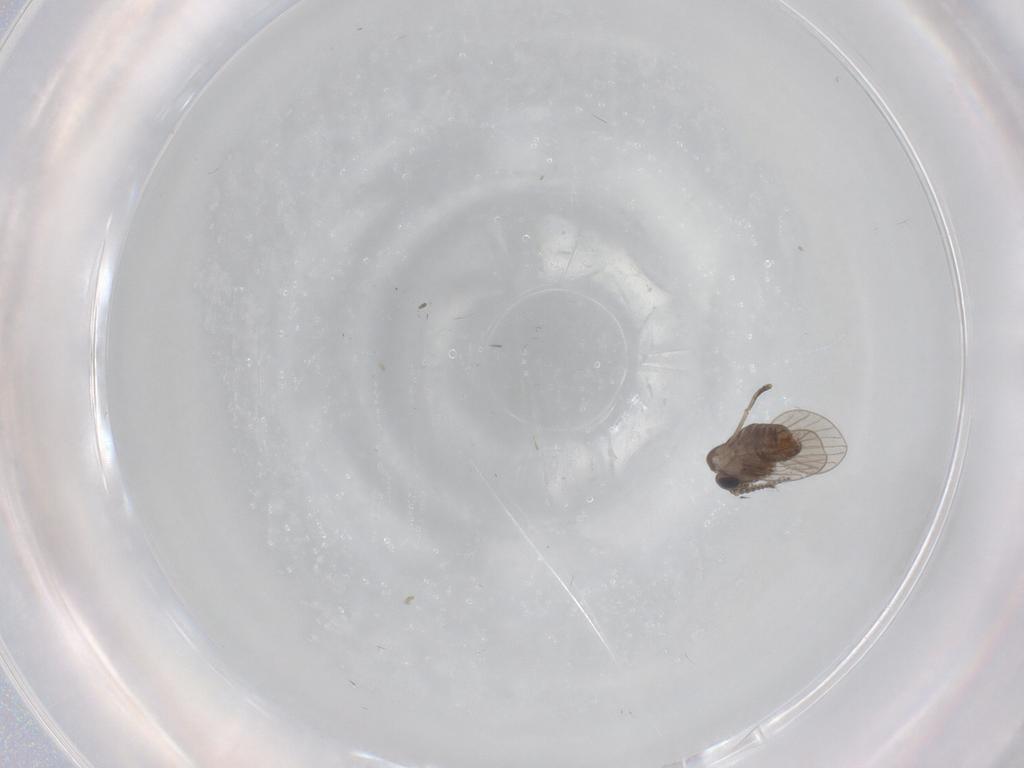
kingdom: Animalia
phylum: Arthropoda
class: Insecta
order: Diptera
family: Psychodidae
